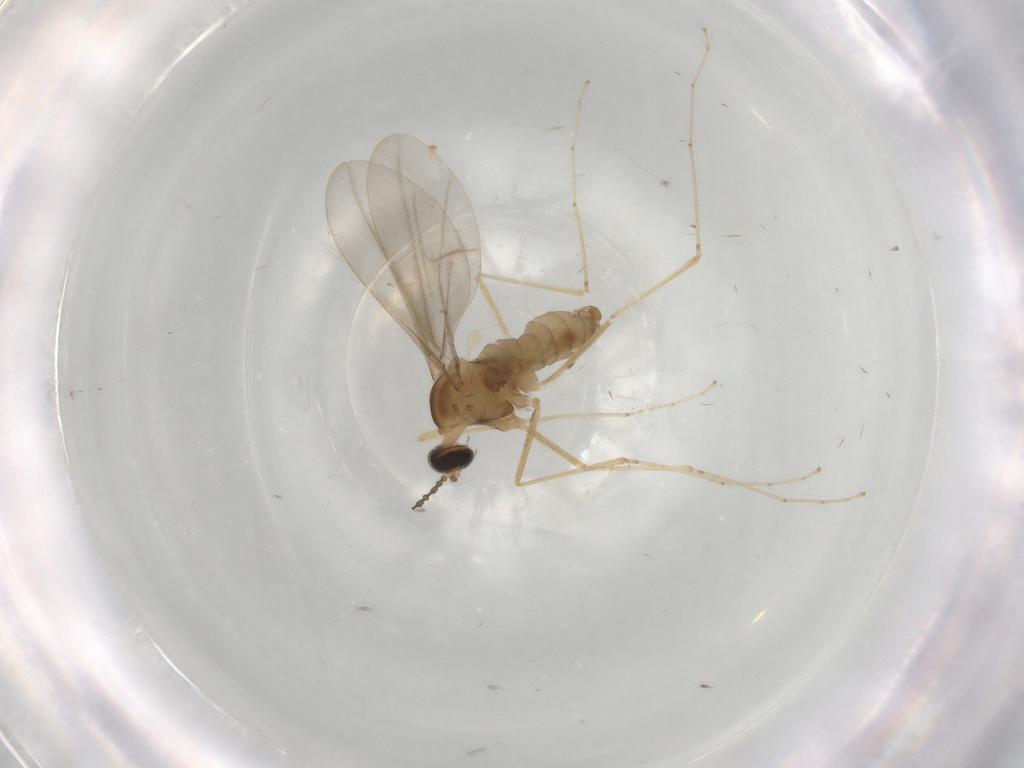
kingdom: Animalia
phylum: Arthropoda
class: Insecta
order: Diptera
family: Cecidomyiidae
